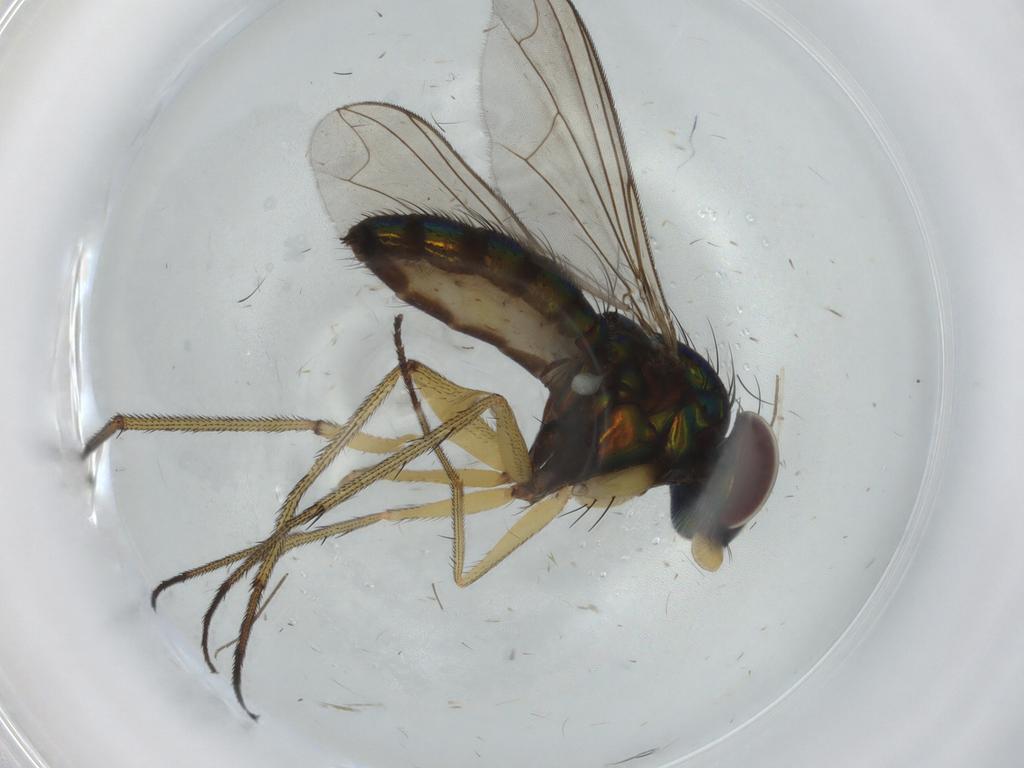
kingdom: Animalia
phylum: Arthropoda
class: Insecta
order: Diptera
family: Dolichopodidae
